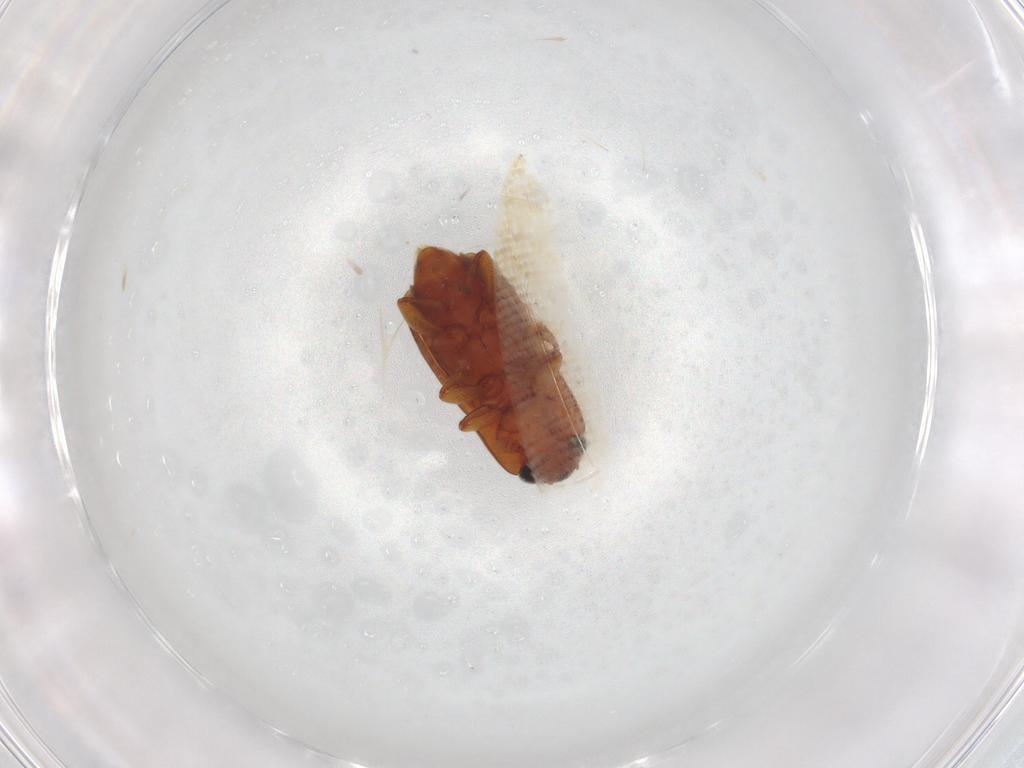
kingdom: Animalia
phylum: Arthropoda
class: Insecta
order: Coleoptera
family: Nitidulidae
